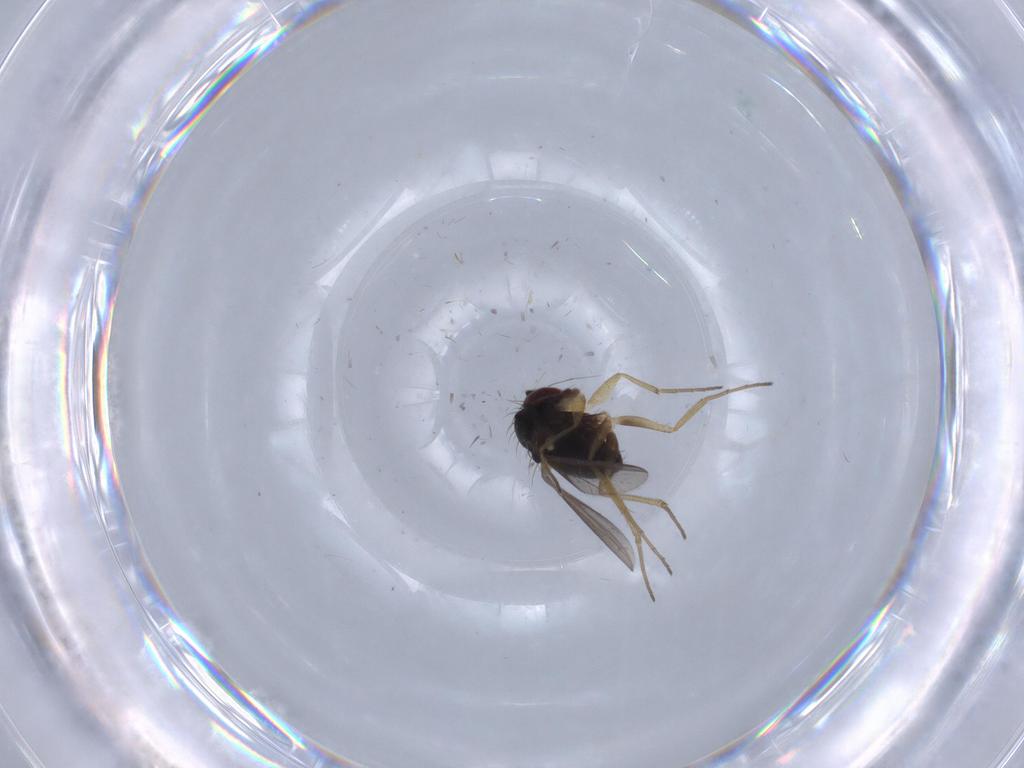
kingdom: Animalia
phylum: Arthropoda
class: Insecta
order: Diptera
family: Dolichopodidae
